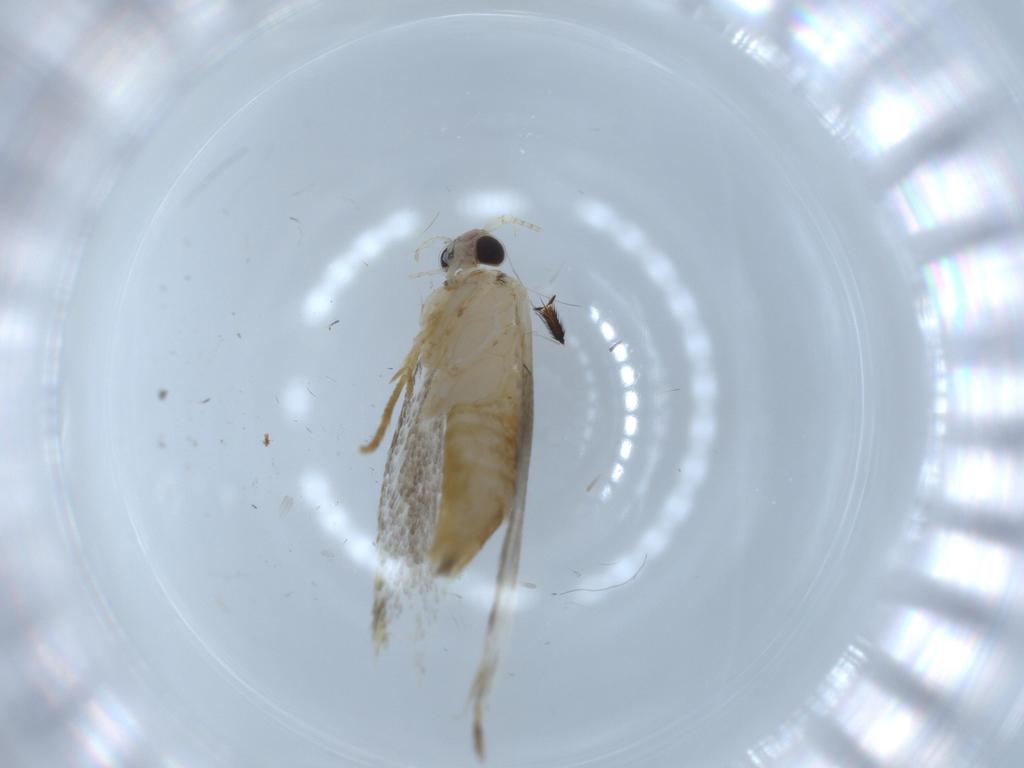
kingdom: Animalia
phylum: Arthropoda
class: Insecta
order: Lepidoptera
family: Tineidae
